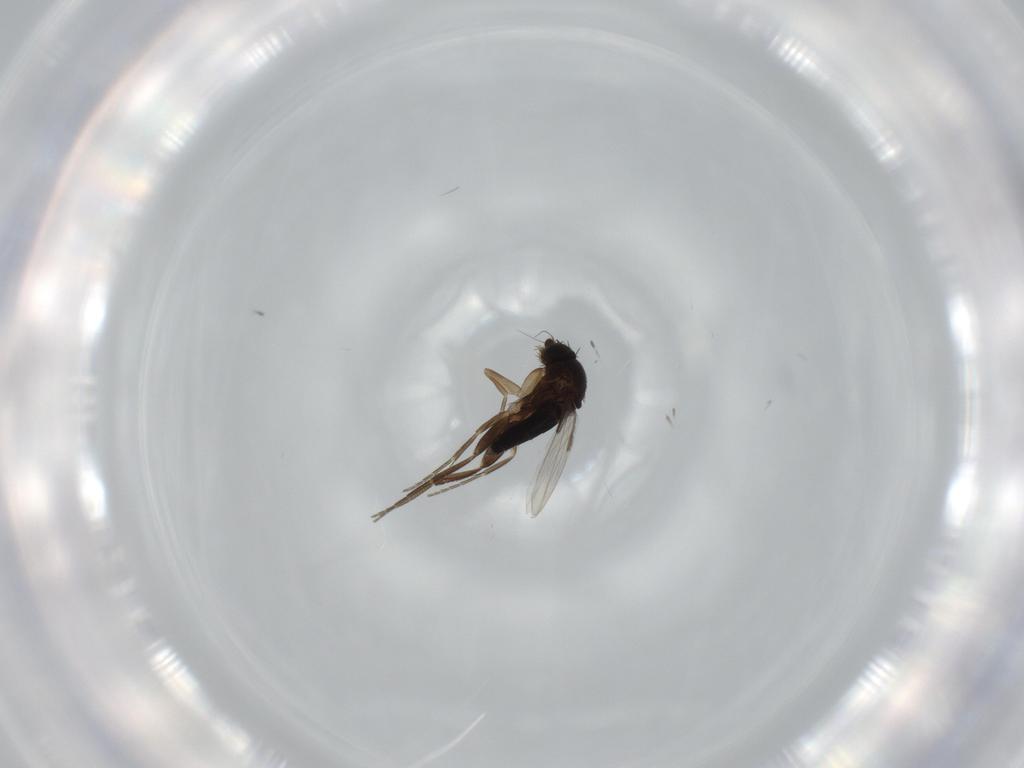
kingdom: Animalia
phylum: Arthropoda
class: Insecta
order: Diptera
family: Phoridae
